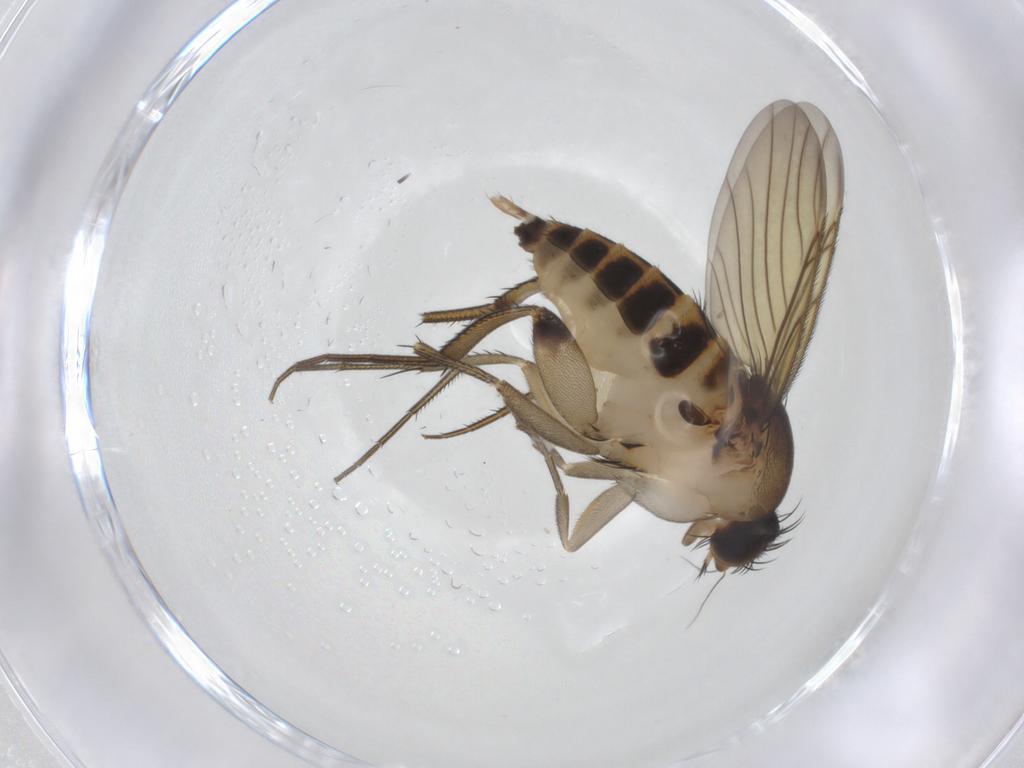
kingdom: Animalia
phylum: Arthropoda
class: Insecta
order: Diptera
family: Phoridae
